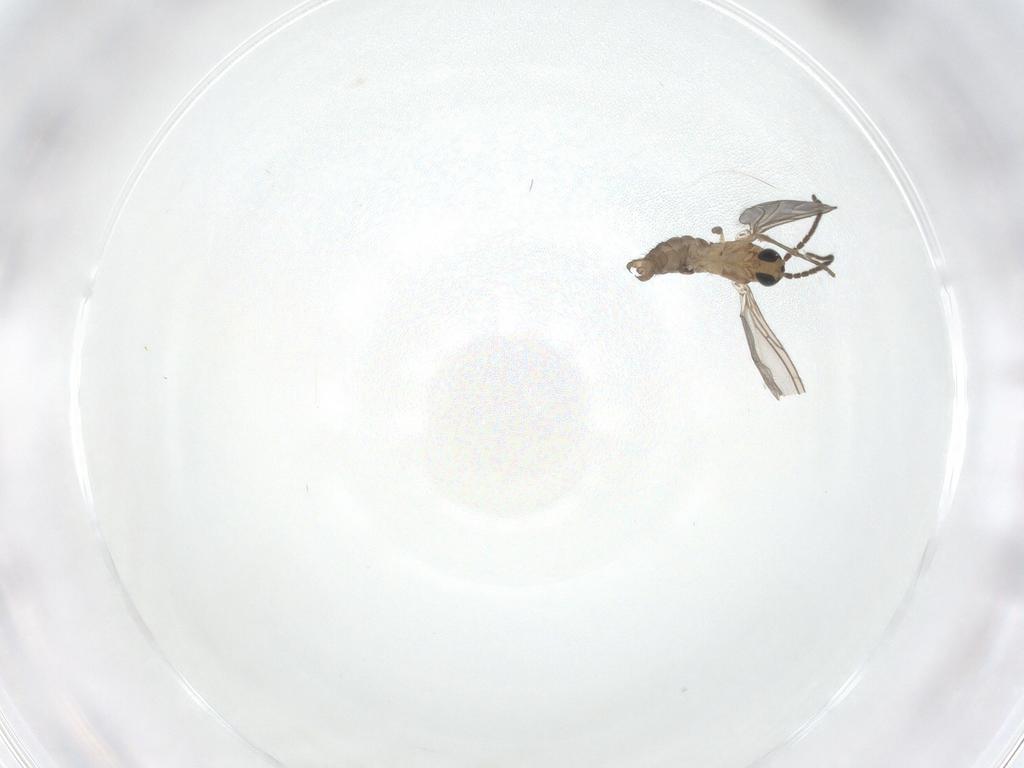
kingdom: Animalia
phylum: Arthropoda
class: Insecta
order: Diptera
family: Sciaridae
